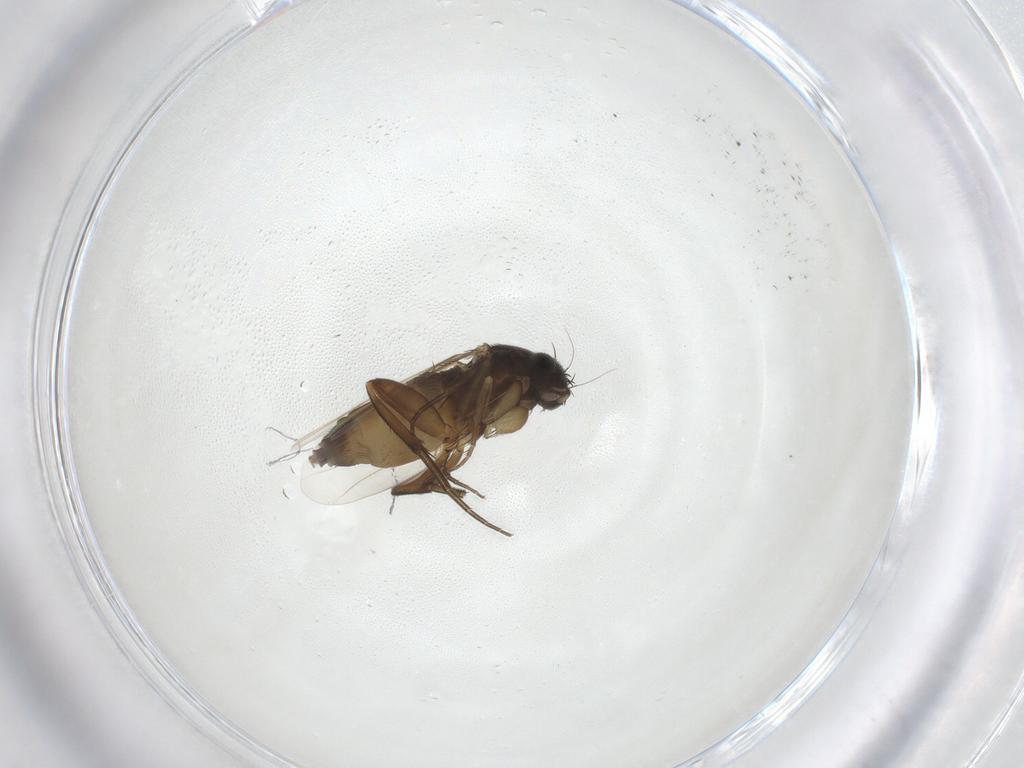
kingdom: Animalia
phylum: Arthropoda
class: Insecta
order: Diptera
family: Phoridae
